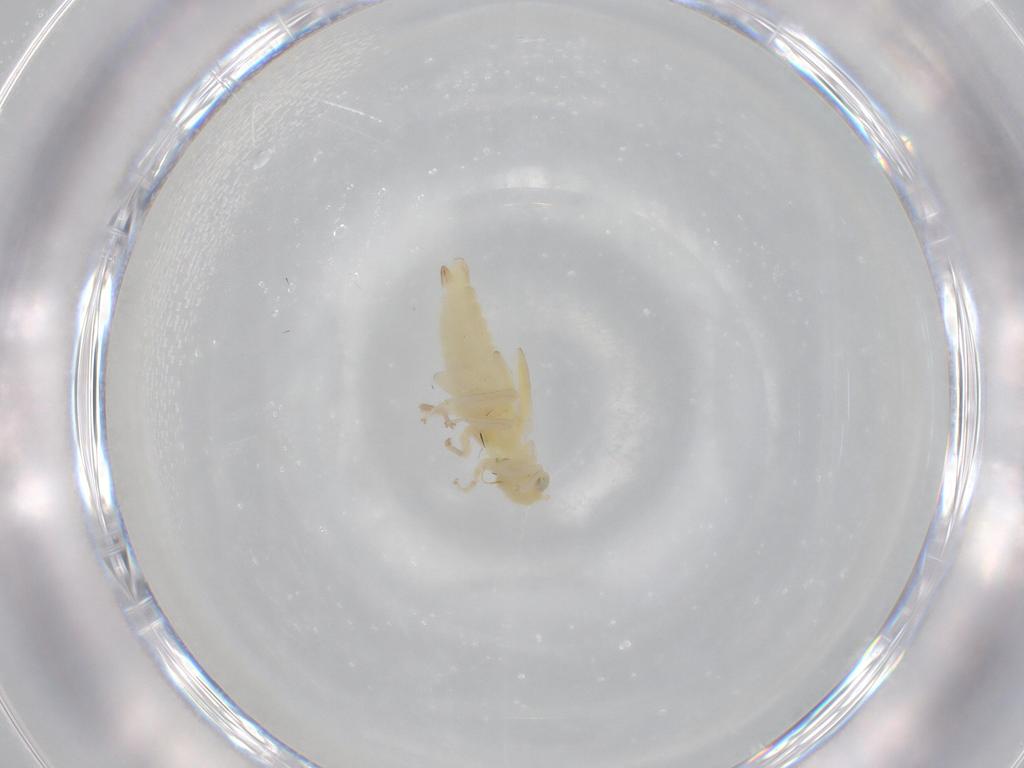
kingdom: Animalia
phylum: Arthropoda
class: Insecta
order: Hemiptera
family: Cicadellidae
